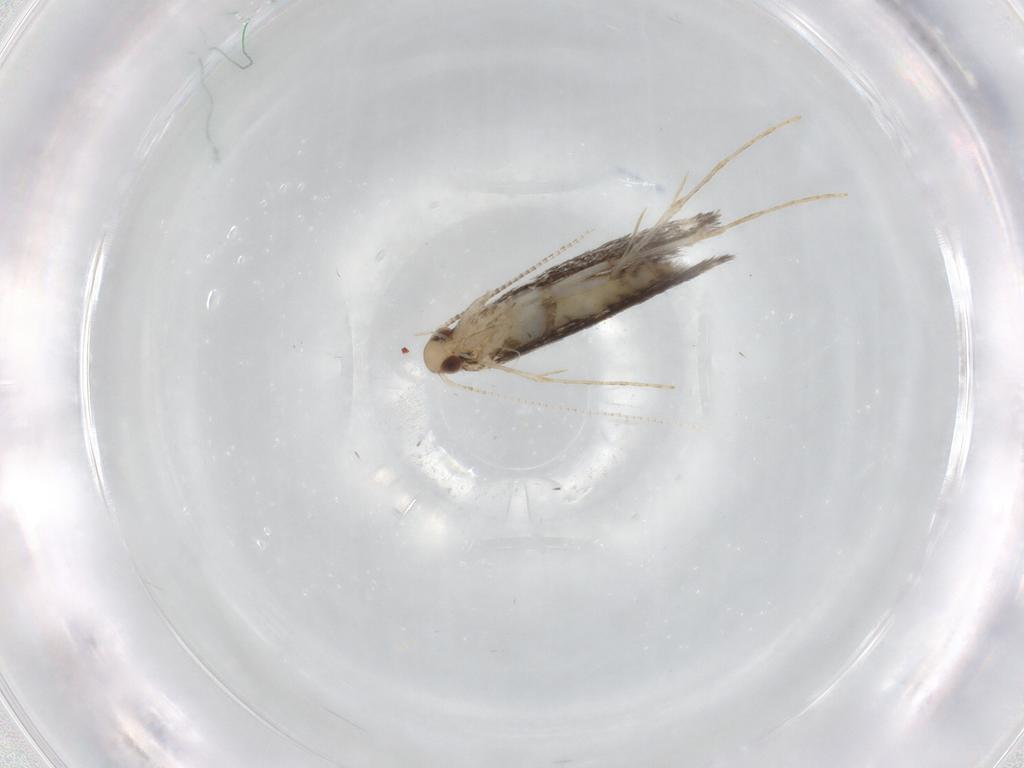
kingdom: Animalia
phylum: Arthropoda
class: Insecta
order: Lepidoptera
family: Gracillariidae
